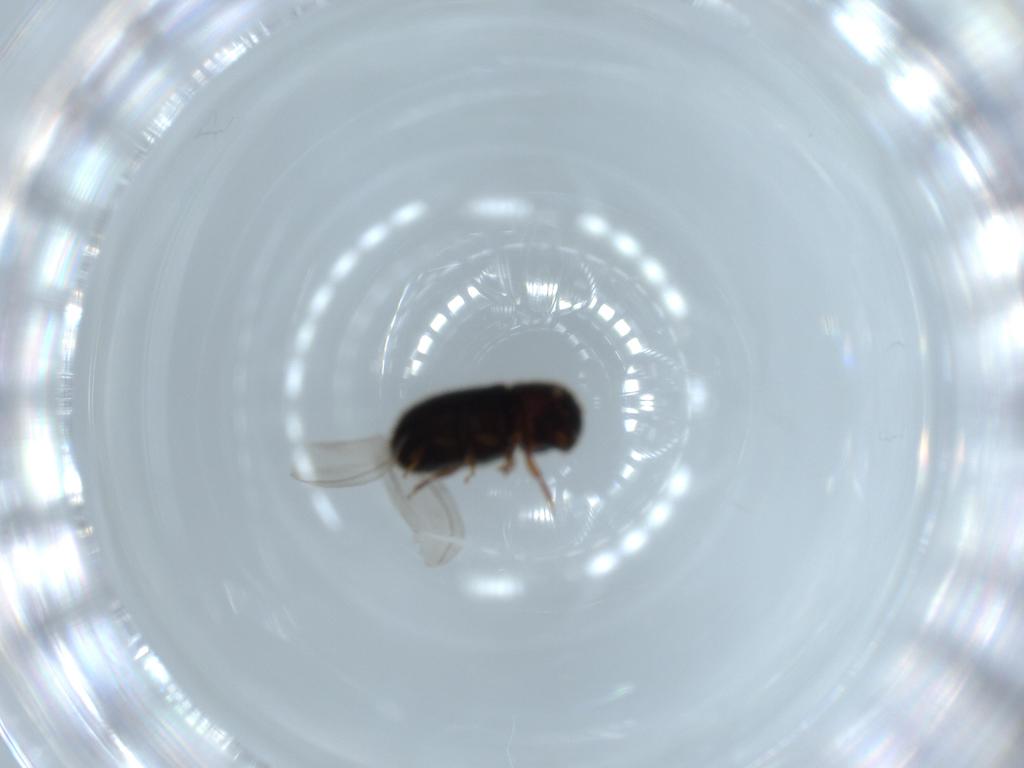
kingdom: Animalia
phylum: Arthropoda
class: Insecta
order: Coleoptera
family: Curculionidae
